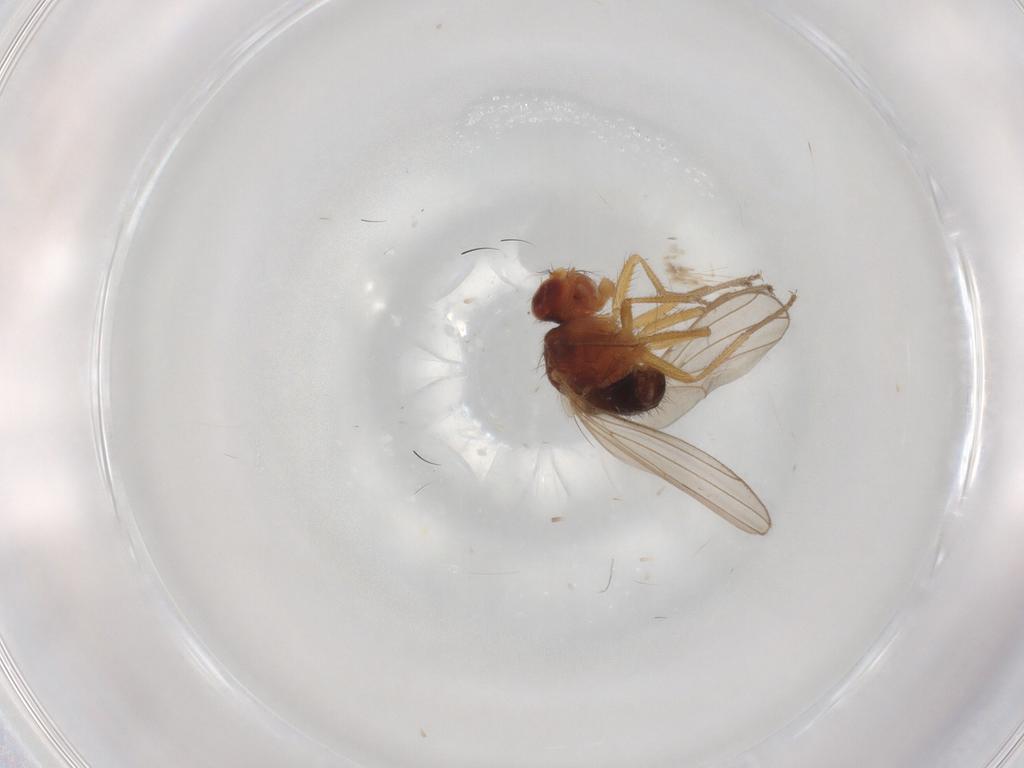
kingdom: Animalia
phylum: Arthropoda
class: Insecta
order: Diptera
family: Drosophilidae
